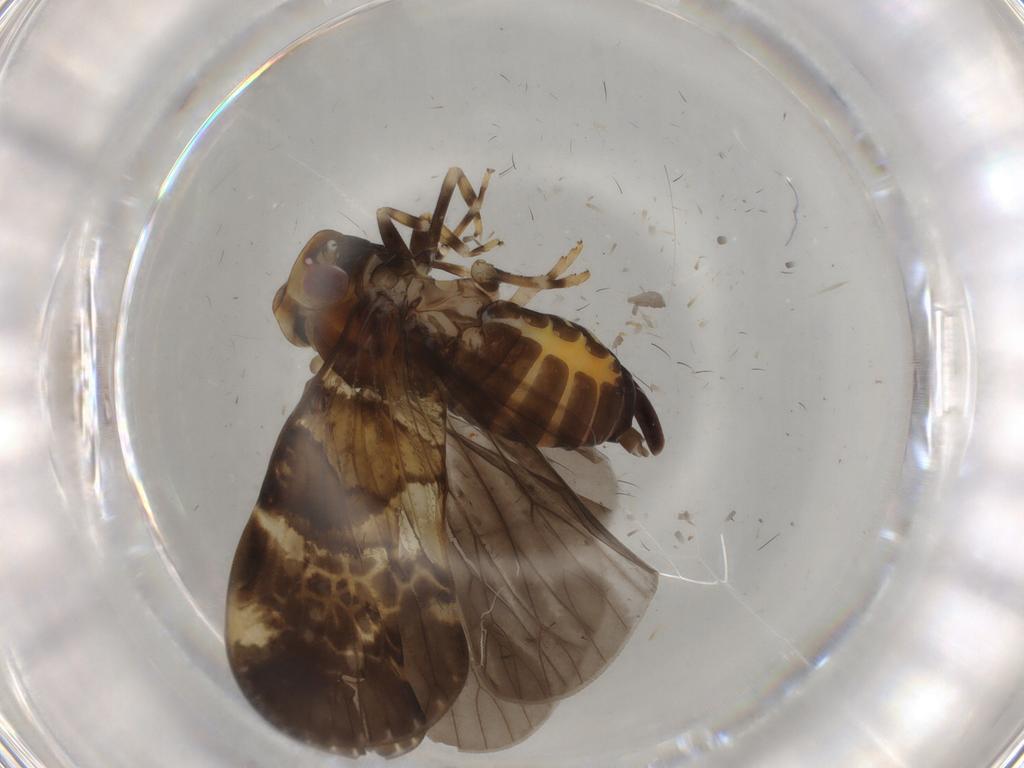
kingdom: Animalia
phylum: Arthropoda
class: Insecta
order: Hemiptera
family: Cixiidae
